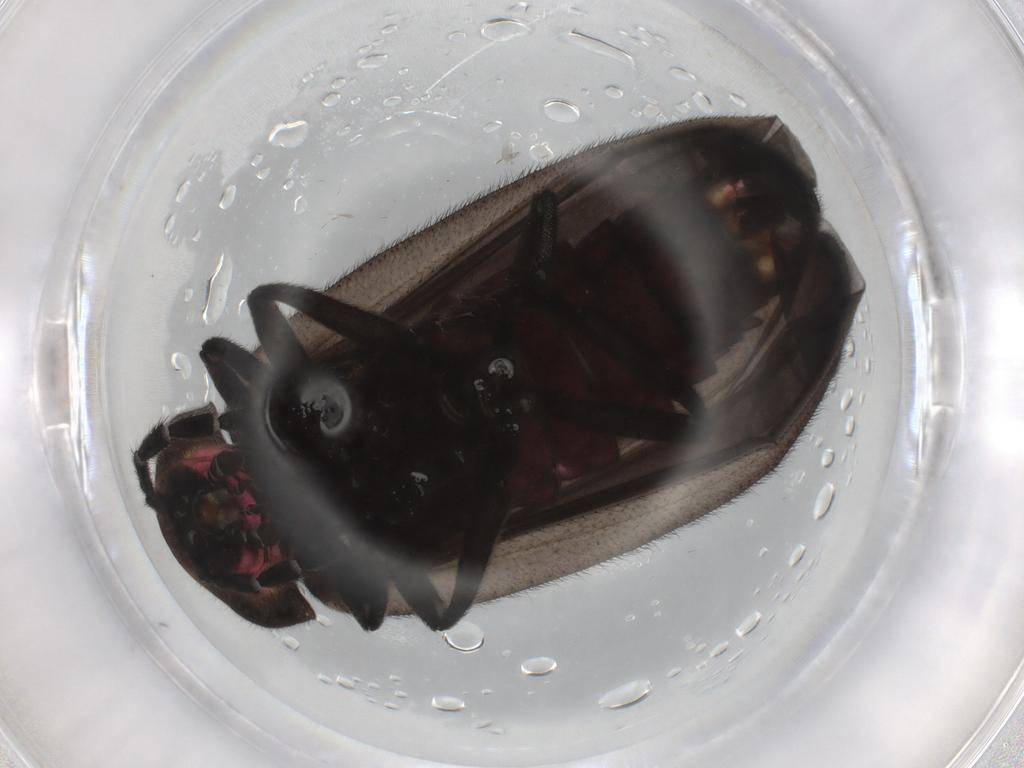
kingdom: Animalia
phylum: Arthropoda
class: Insecta
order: Coleoptera
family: Lampyridae
